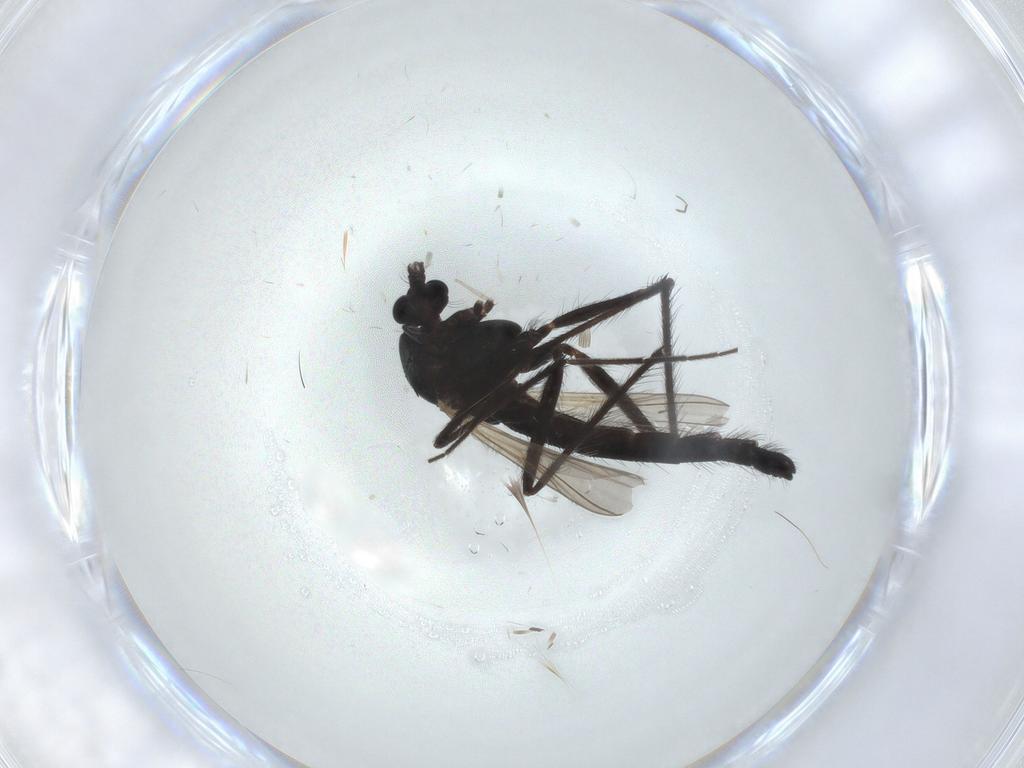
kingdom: Animalia
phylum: Arthropoda
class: Insecta
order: Diptera
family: Chironomidae
